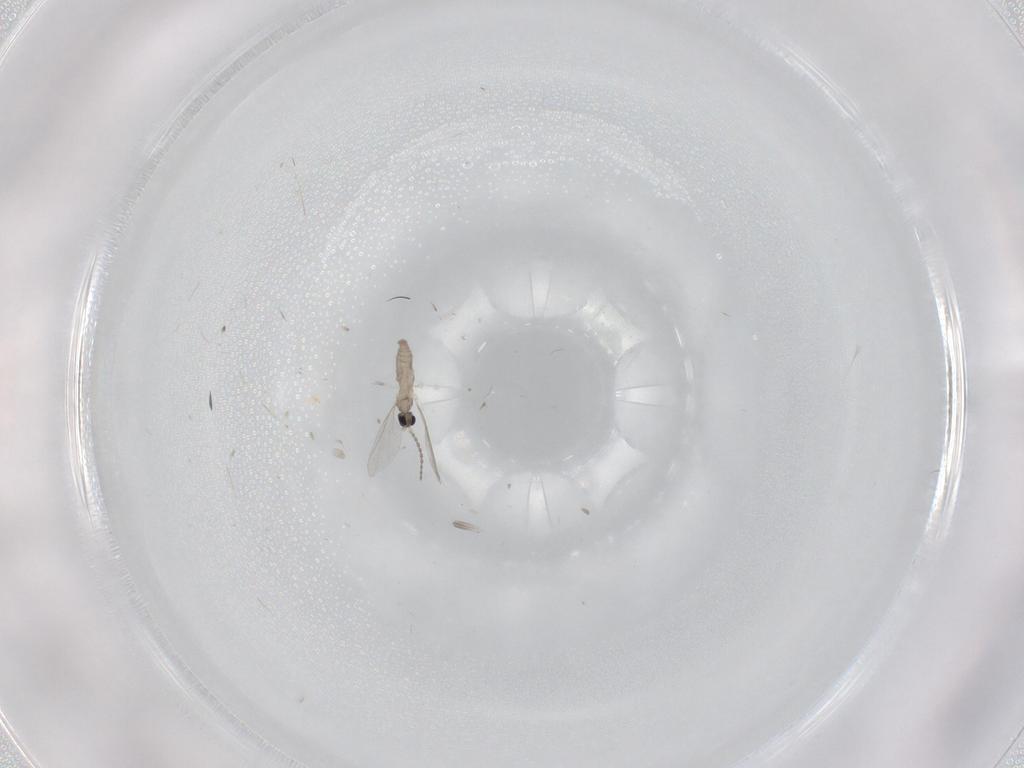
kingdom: Animalia
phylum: Arthropoda
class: Insecta
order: Diptera
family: Cecidomyiidae
